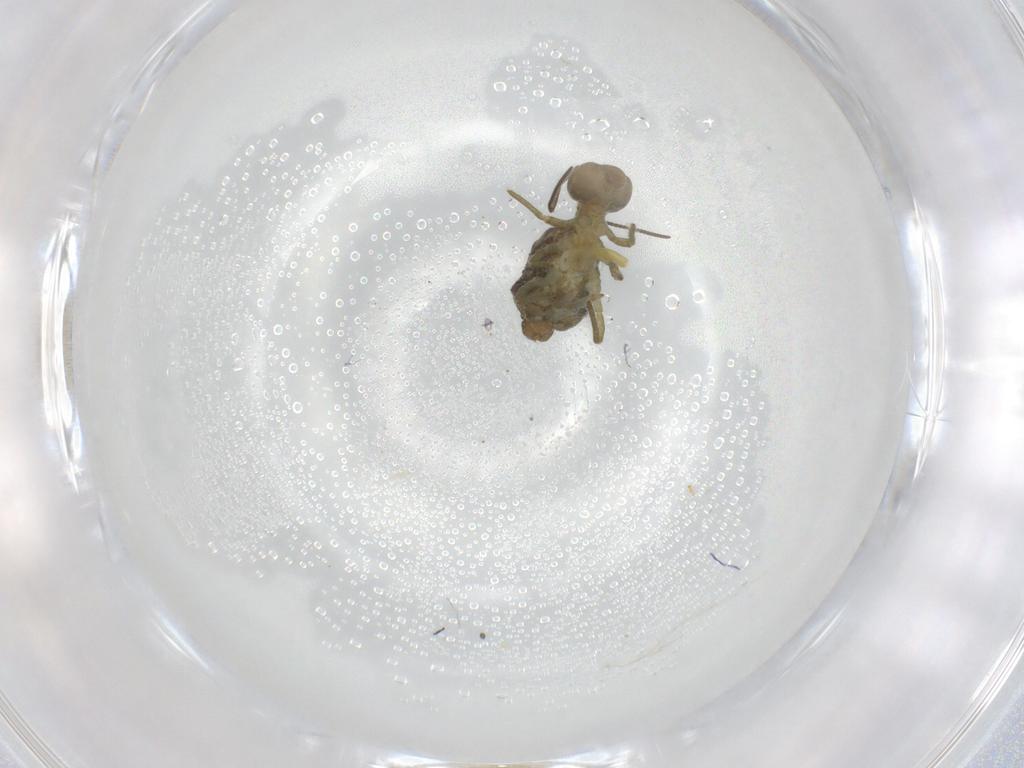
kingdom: Animalia
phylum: Arthropoda
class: Collembola
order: Symphypleona
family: Sminthuridae
